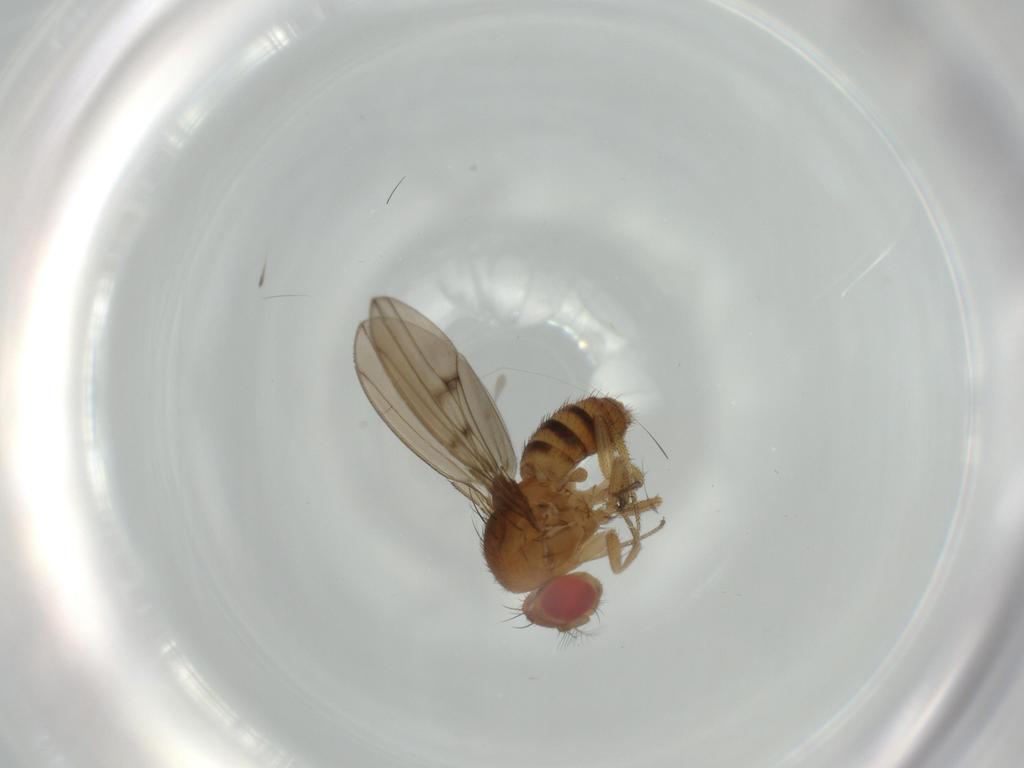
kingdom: Animalia
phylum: Arthropoda
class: Insecta
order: Diptera
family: Drosophilidae
